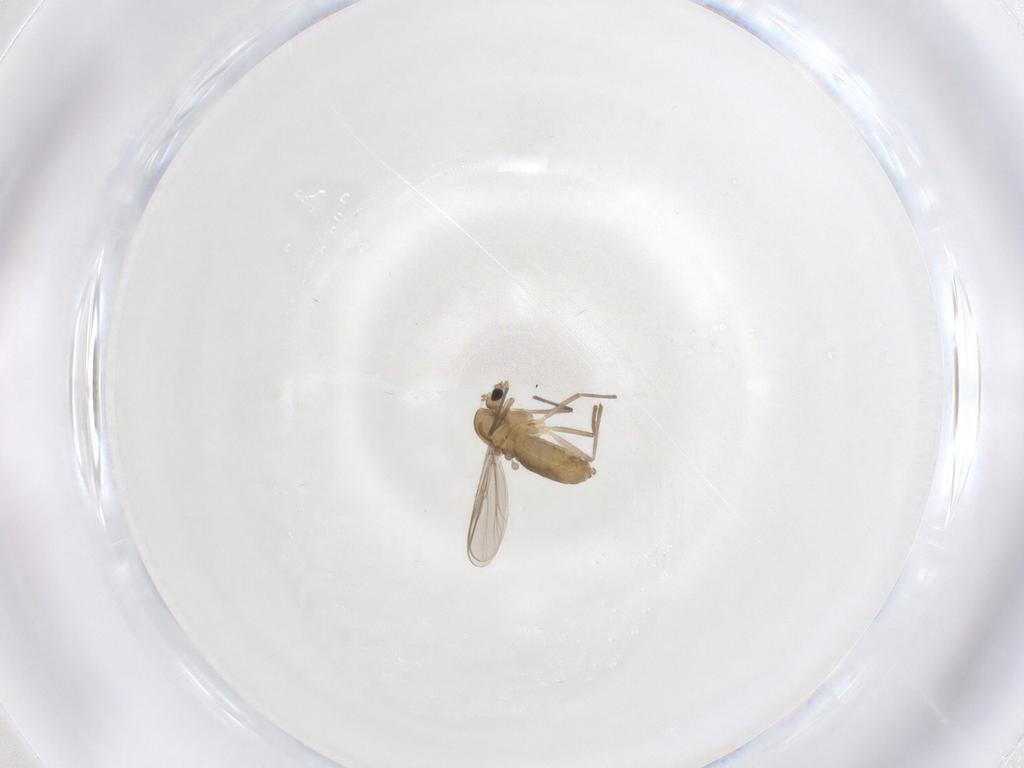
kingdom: Animalia
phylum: Arthropoda
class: Insecta
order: Diptera
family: Chironomidae
